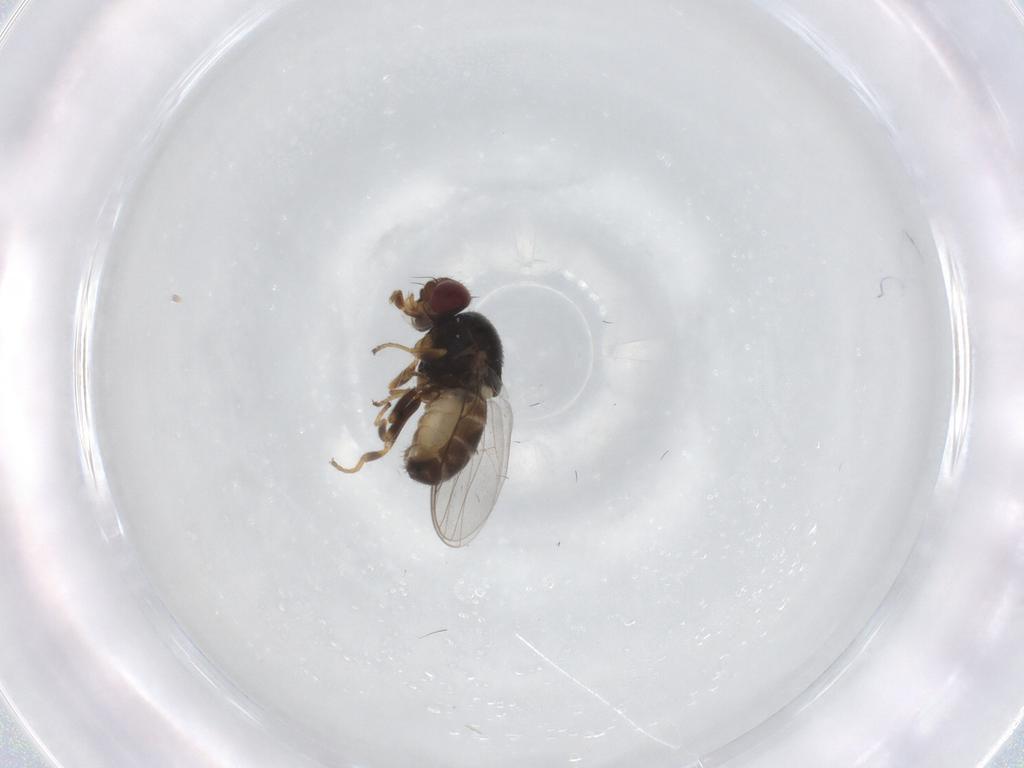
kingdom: Animalia
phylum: Arthropoda
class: Insecta
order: Diptera
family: Chloropidae
